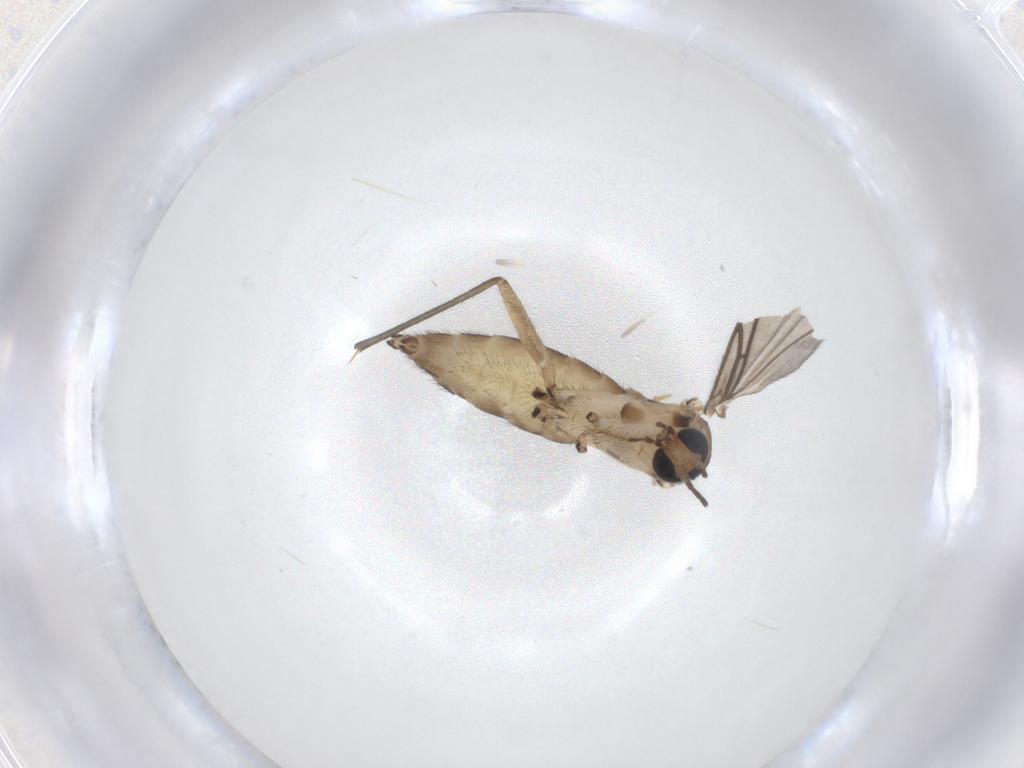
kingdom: Animalia
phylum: Arthropoda
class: Insecta
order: Diptera
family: Sciaridae
